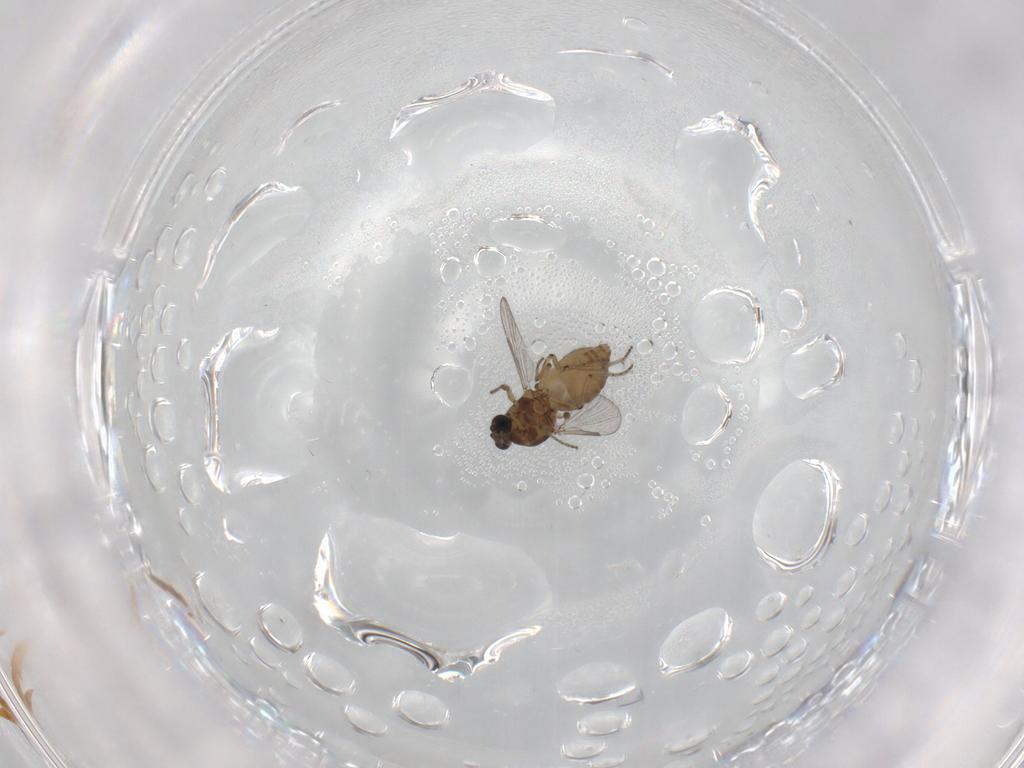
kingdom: Animalia
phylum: Arthropoda
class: Insecta
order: Diptera
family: Ceratopogonidae
